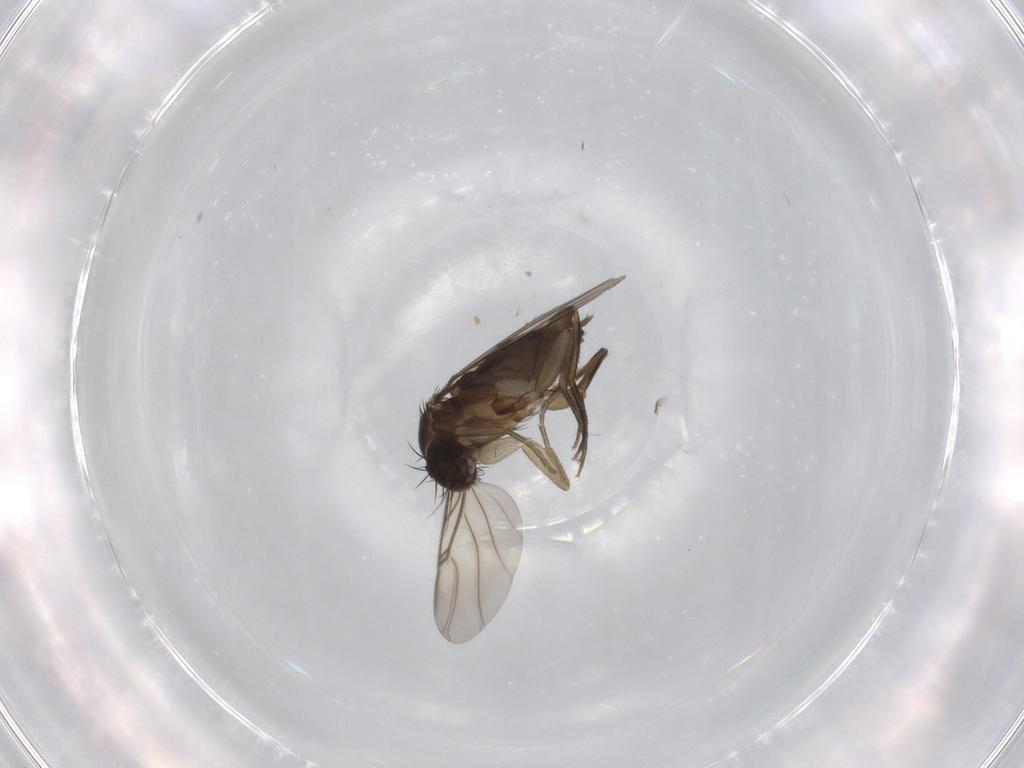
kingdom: Animalia
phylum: Arthropoda
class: Insecta
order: Diptera
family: Phoridae
